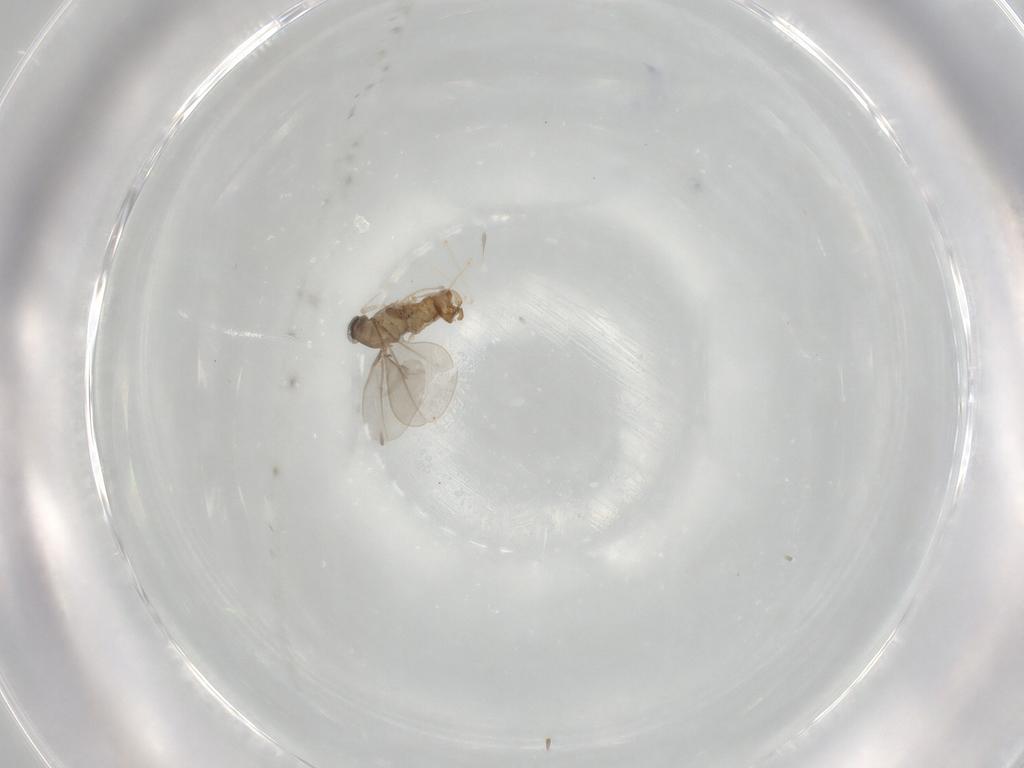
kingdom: Animalia
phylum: Arthropoda
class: Insecta
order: Diptera
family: Cecidomyiidae
